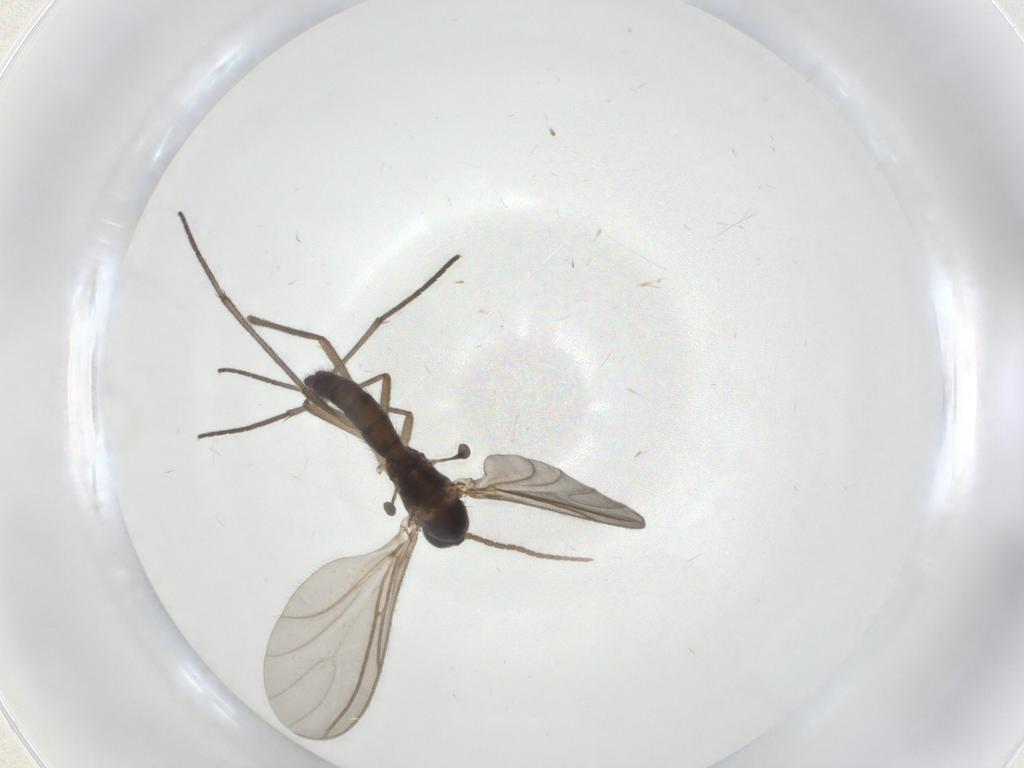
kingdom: Animalia
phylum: Arthropoda
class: Insecta
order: Diptera
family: Sciaridae
